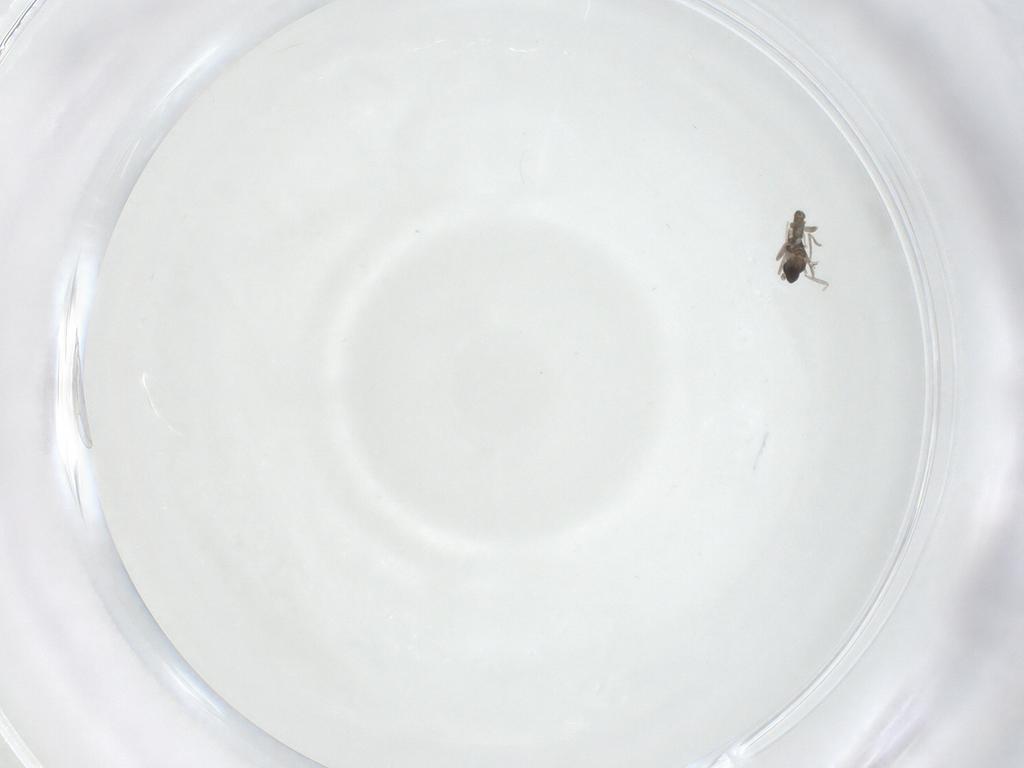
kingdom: Animalia
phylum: Arthropoda
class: Insecta
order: Diptera
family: Cecidomyiidae
